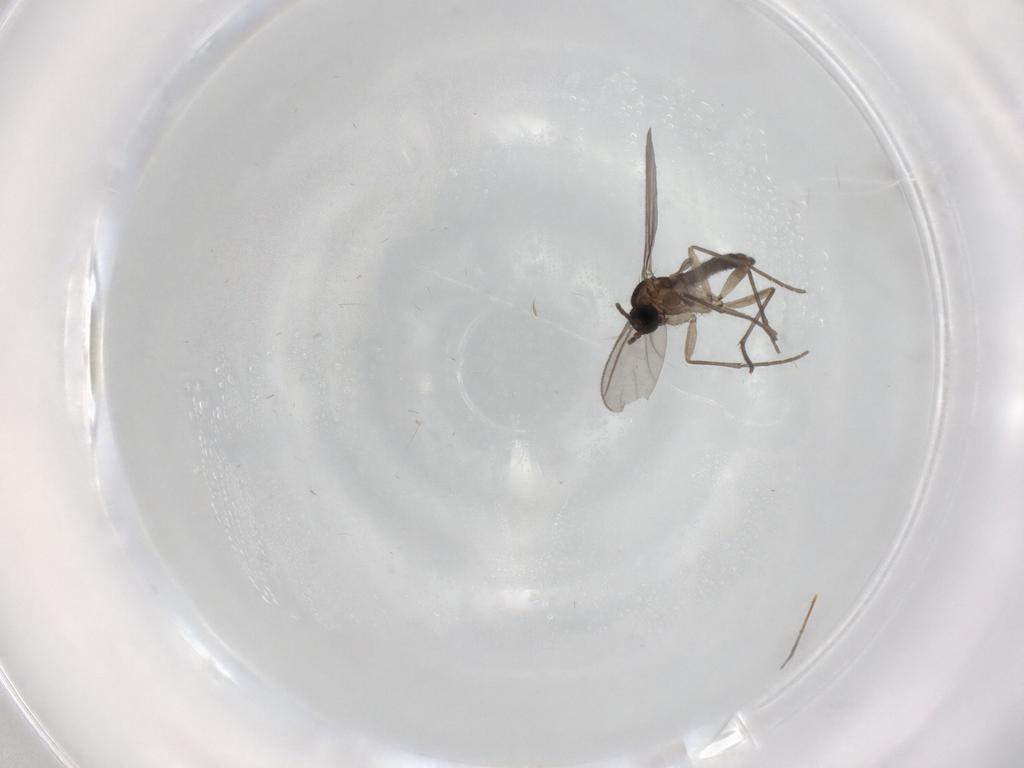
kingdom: Animalia
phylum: Arthropoda
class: Insecta
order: Diptera
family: Sciaridae
